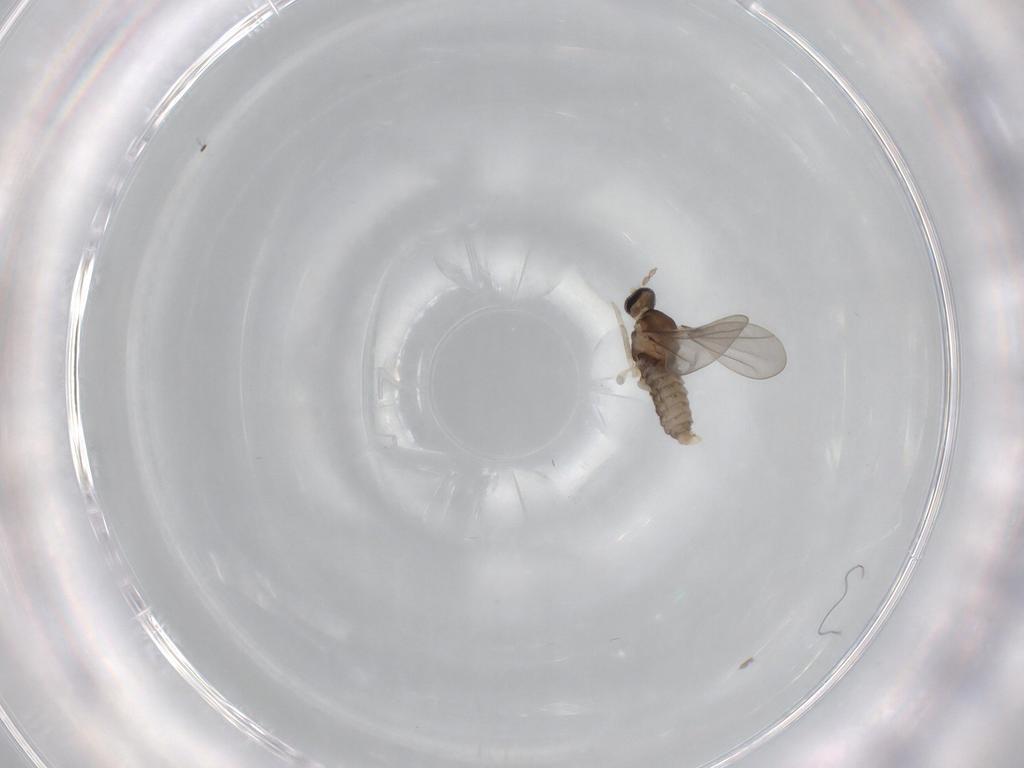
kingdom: Animalia
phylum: Arthropoda
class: Insecta
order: Diptera
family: Cecidomyiidae
